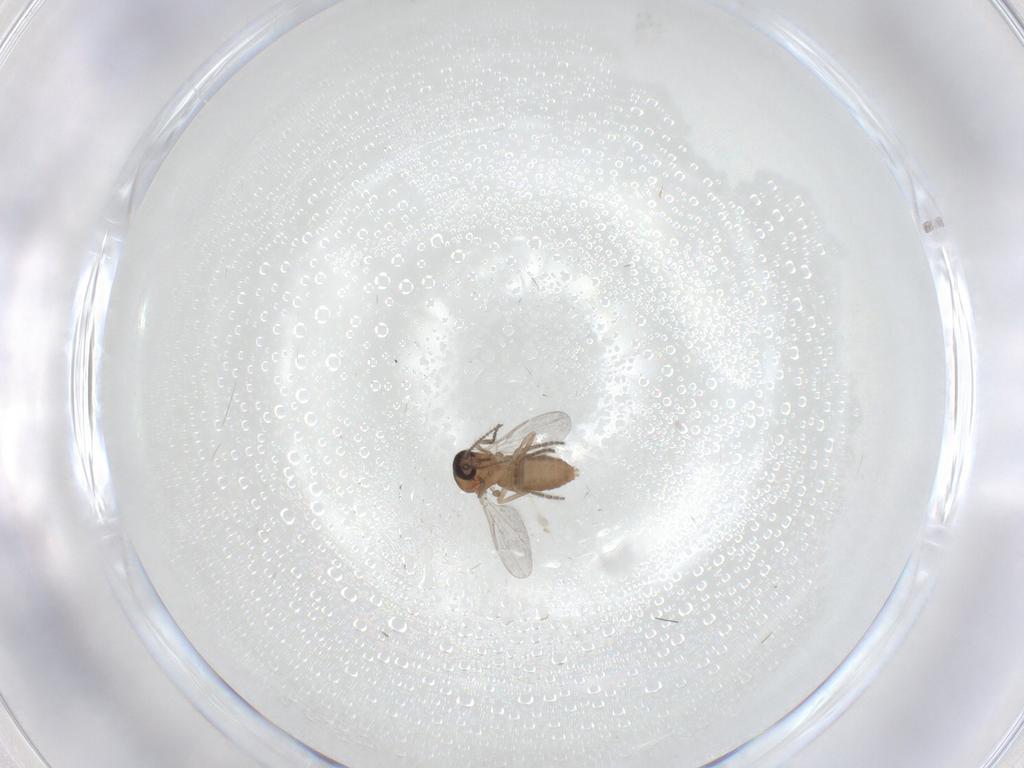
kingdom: Animalia
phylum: Arthropoda
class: Insecta
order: Diptera
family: Ceratopogonidae
